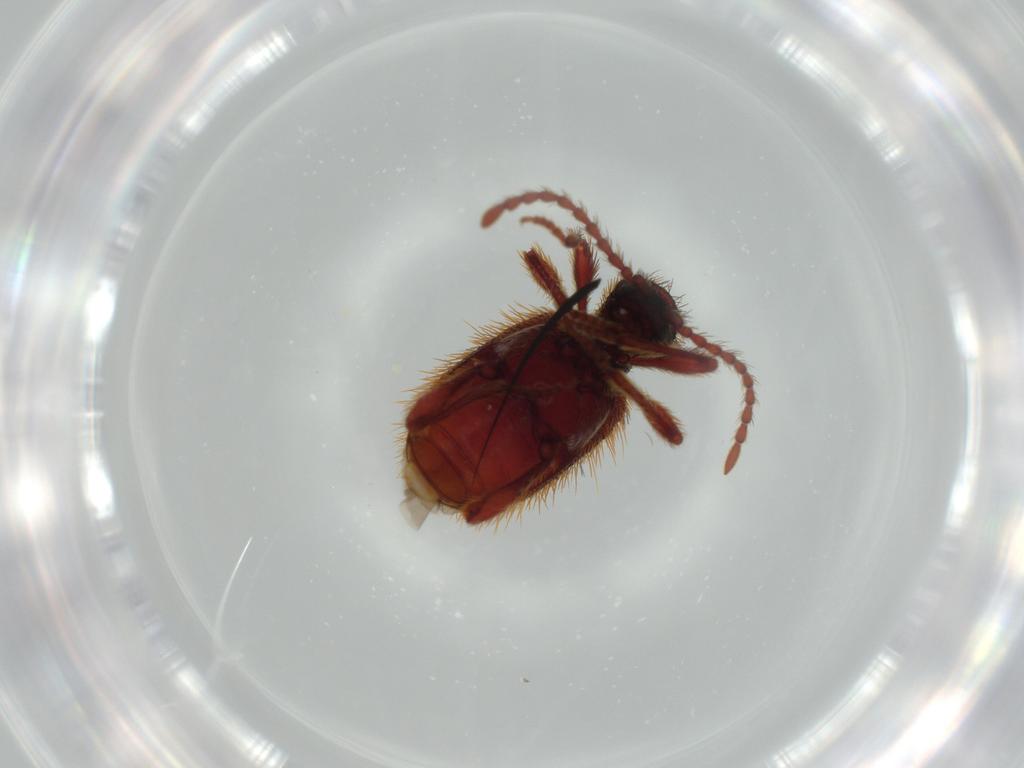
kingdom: Animalia
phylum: Arthropoda
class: Insecta
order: Coleoptera
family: Ptinidae
